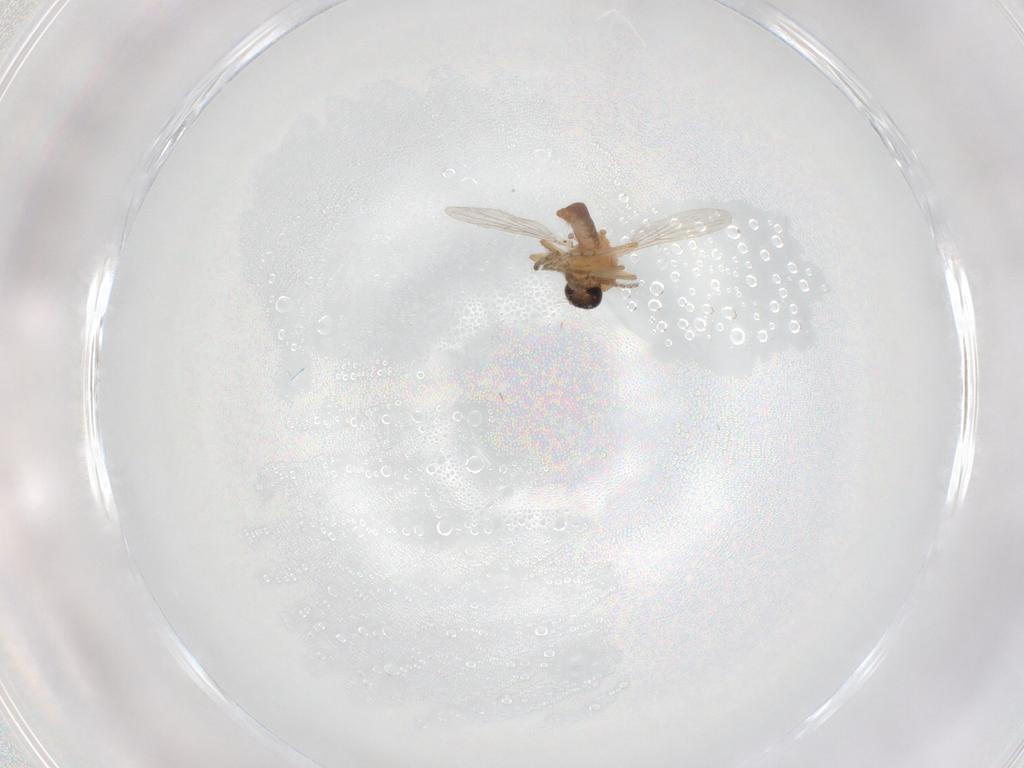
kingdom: Animalia
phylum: Arthropoda
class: Insecta
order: Diptera
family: Ceratopogonidae
